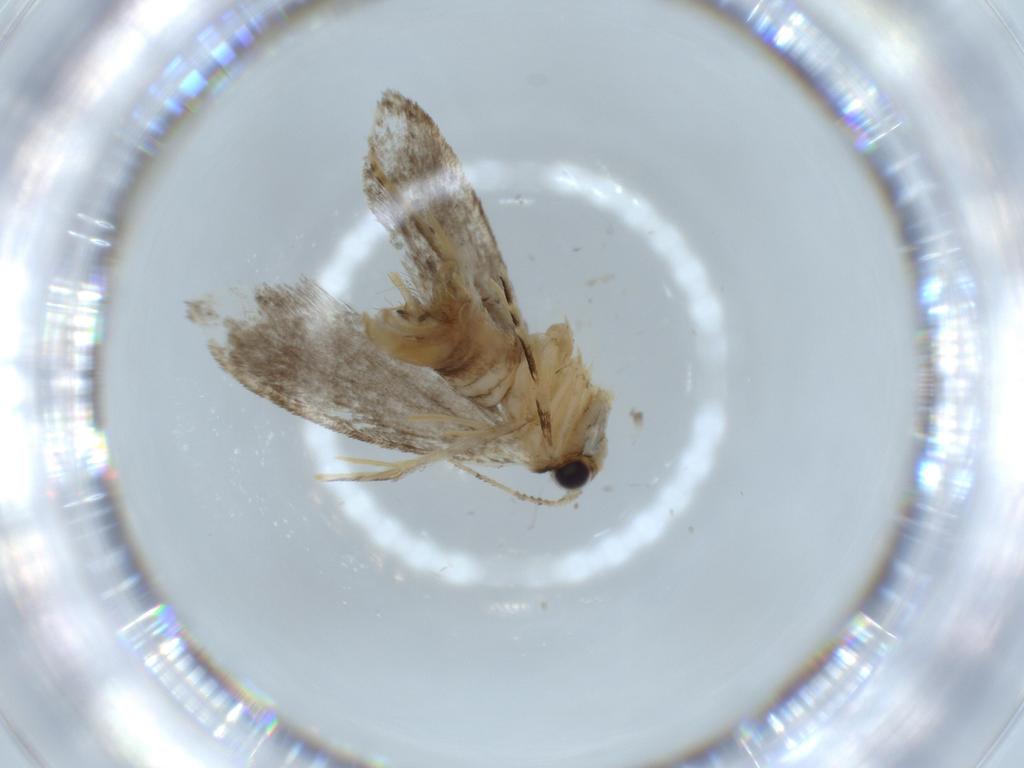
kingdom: Animalia
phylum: Arthropoda
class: Insecta
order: Lepidoptera
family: Tineidae
